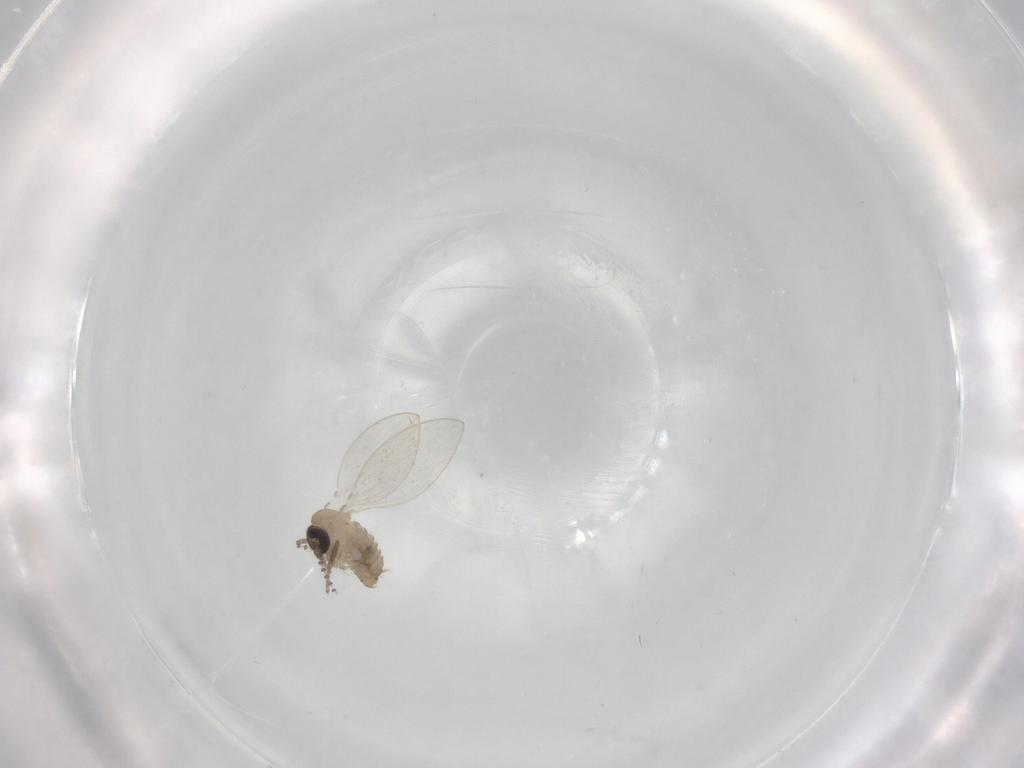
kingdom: Animalia
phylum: Arthropoda
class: Insecta
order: Diptera
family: Psychodidae
